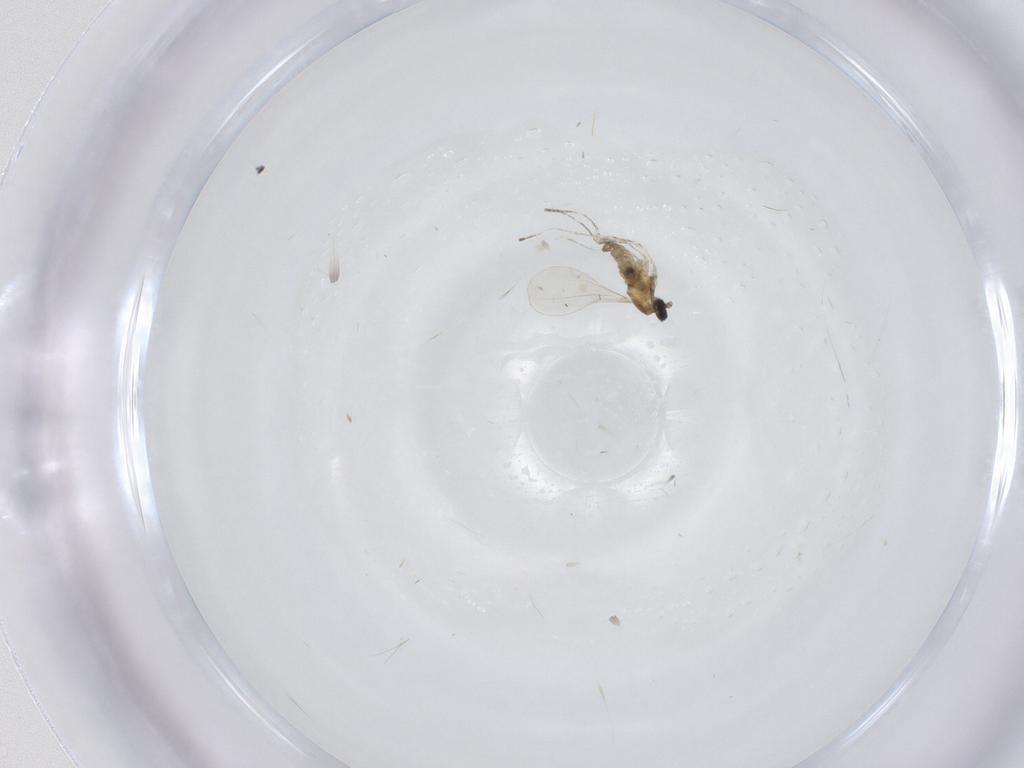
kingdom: Animalia
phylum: Arthropoda
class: Insecta
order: Diptera
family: Cecidomyiidae
